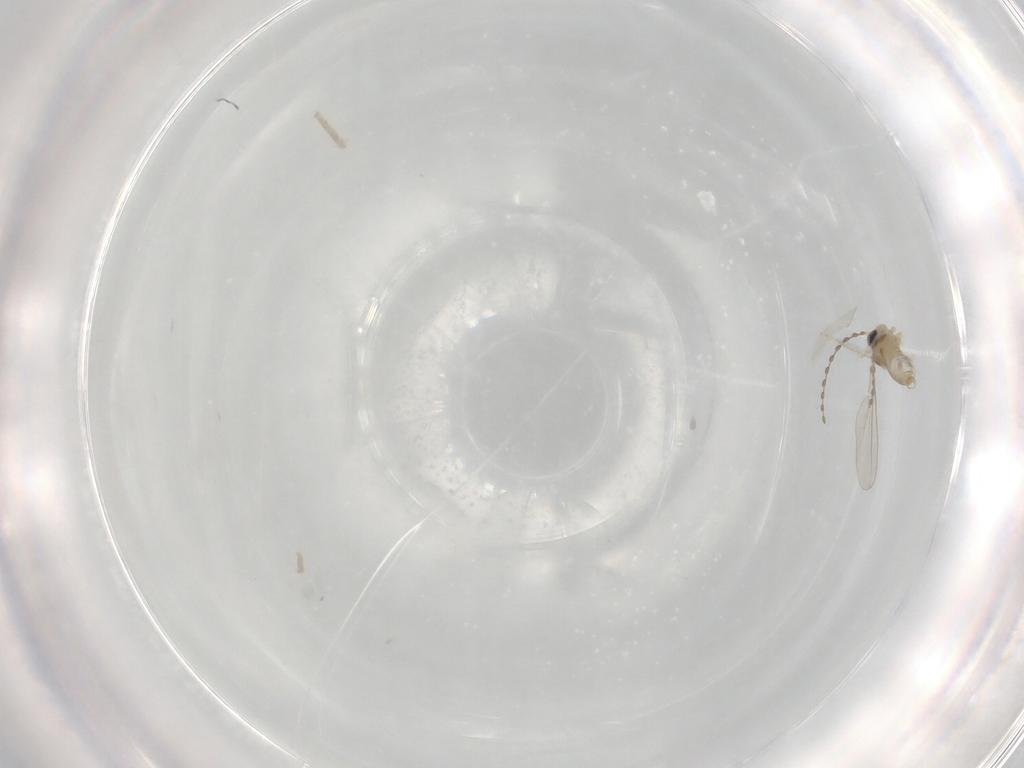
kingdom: Animalia
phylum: Arthropoda
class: Insecta
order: Diptera
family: Cecidomyiidae
